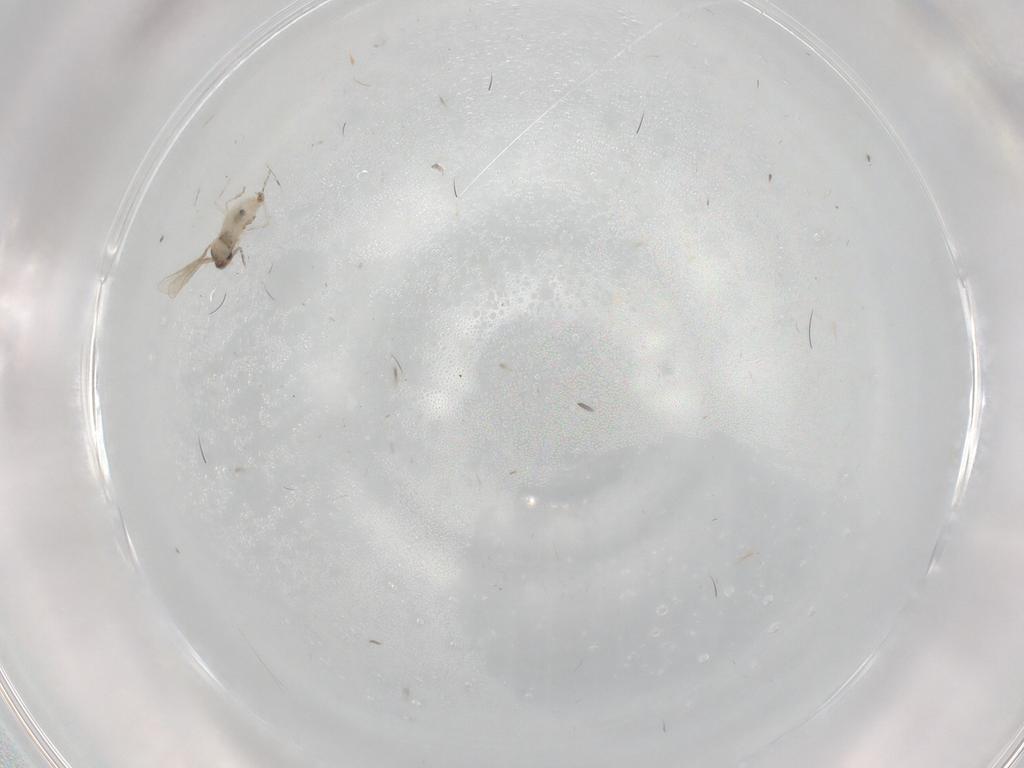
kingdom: Animalia
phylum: Arthropoda
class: Insecta
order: Diptera
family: Cecidomyiidae
